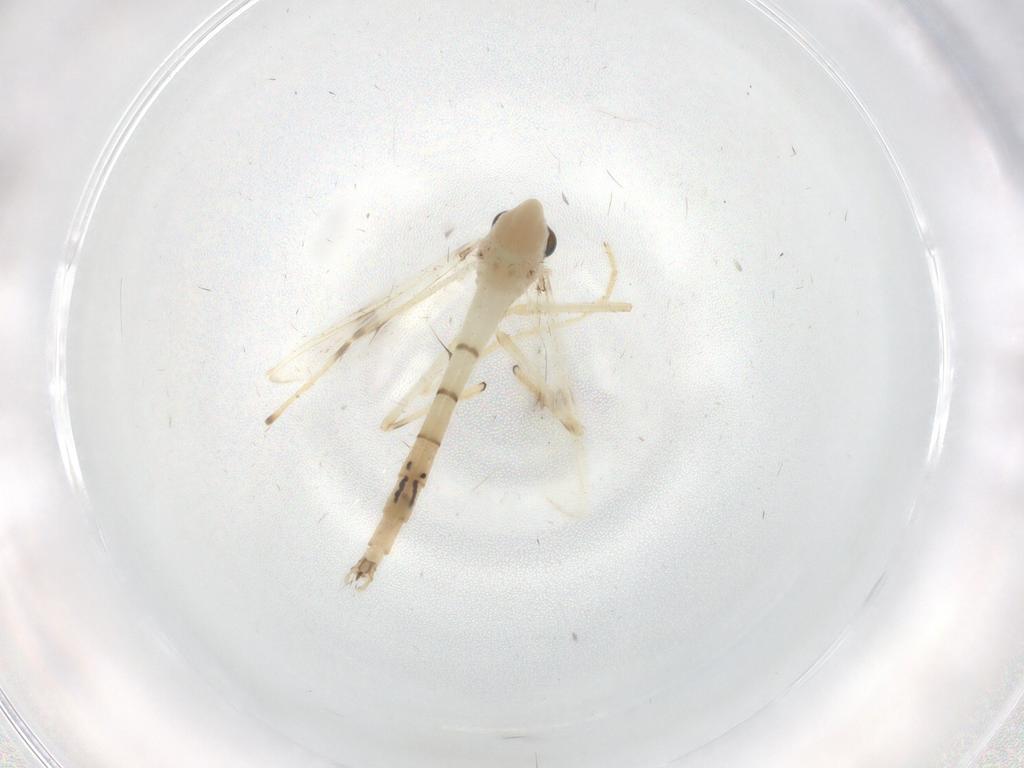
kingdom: Animalia
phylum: Arthropoda
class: Insecta
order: Diptera
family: Chironomidae
